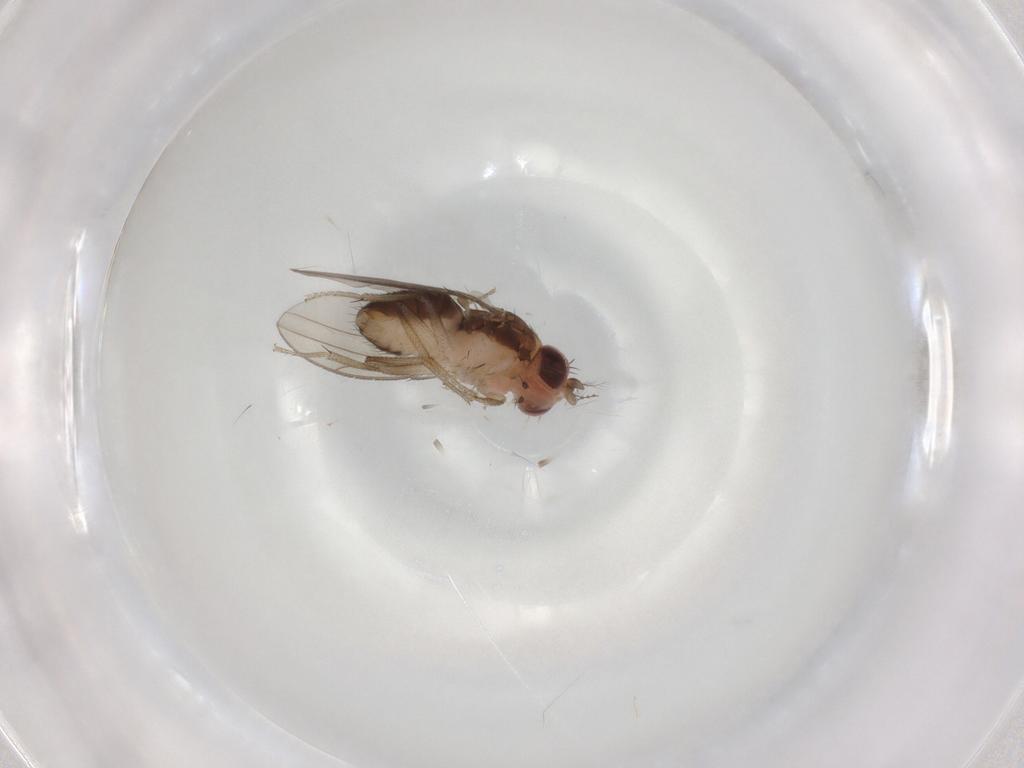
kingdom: Animalia
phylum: Arthropoda
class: Insecta
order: Diptera
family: Drosophilidae
